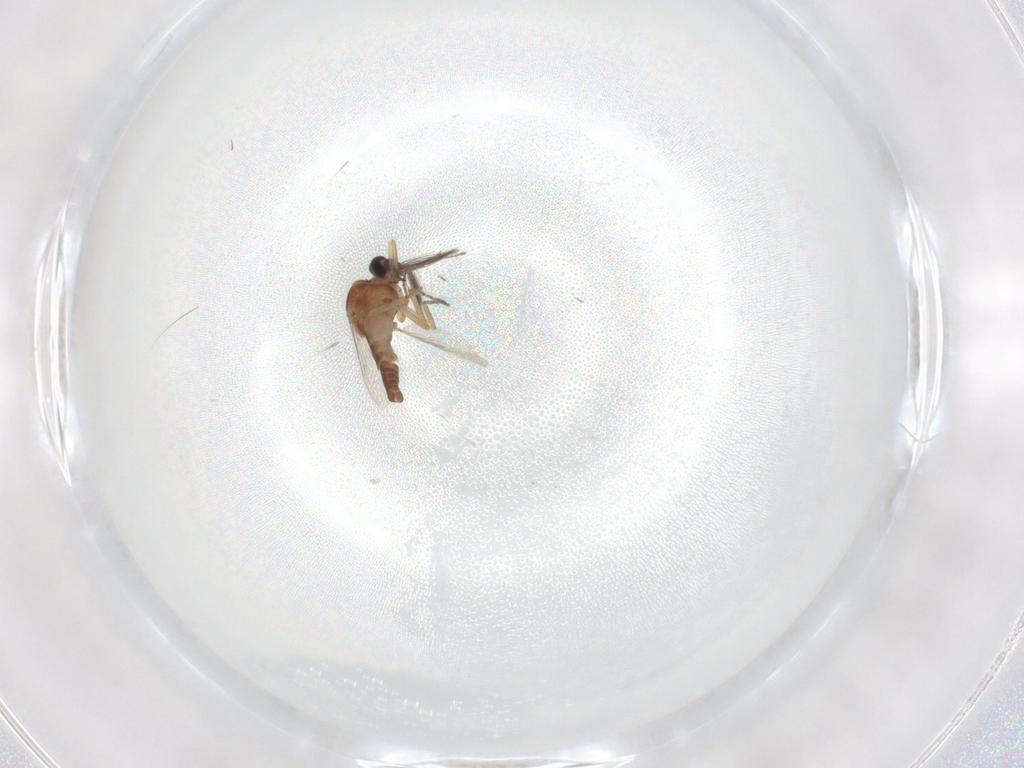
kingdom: Animalia
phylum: Arthropoda
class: Insecta
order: Diptera
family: Ceratopogonidae
